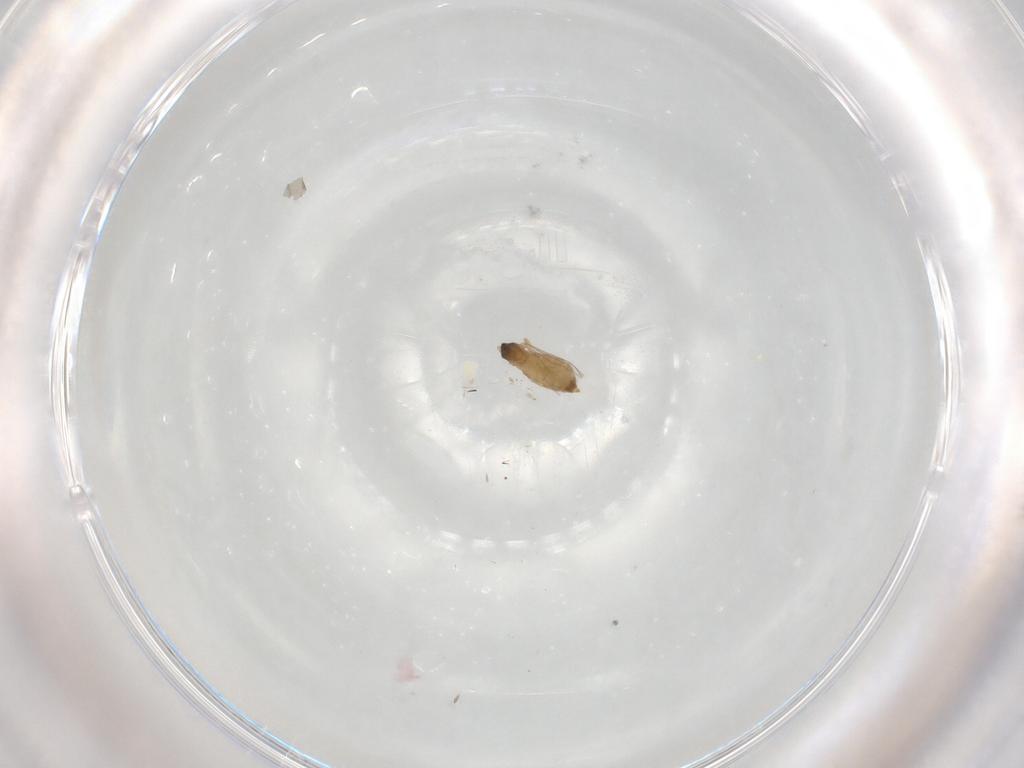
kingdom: Animalia
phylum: Arthropoda
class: Insecta
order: Diptera
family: Cecidomyiidae
